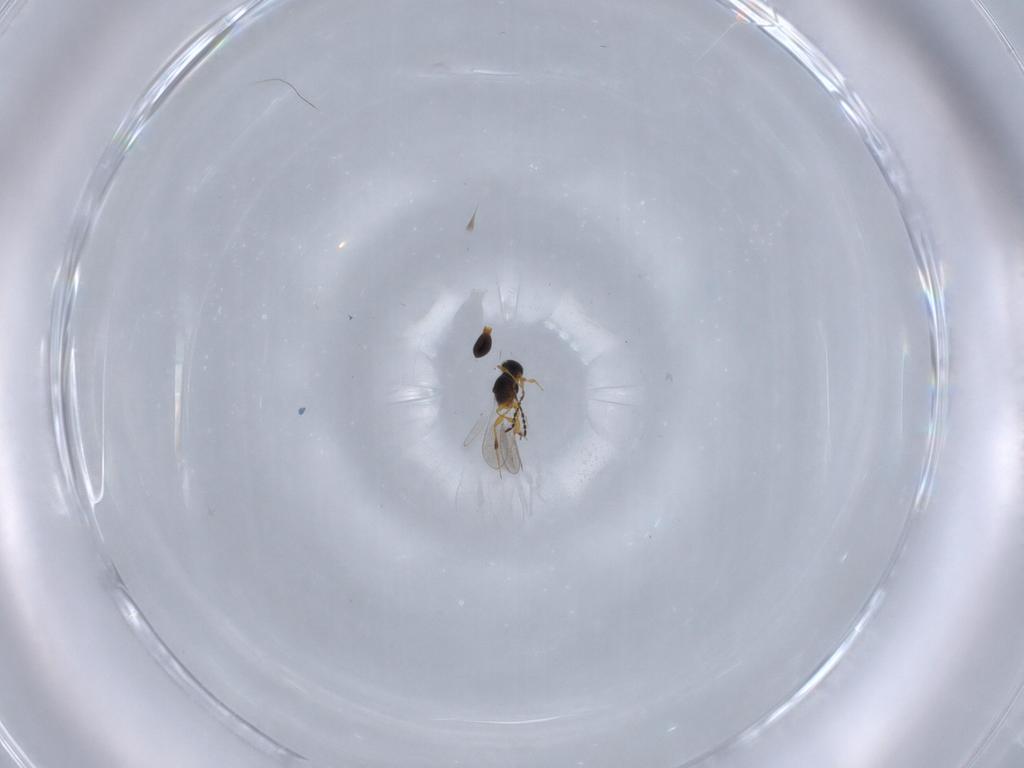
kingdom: Animalia
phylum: Arthropoda
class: Insecta
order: Hymenoptera
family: Platygastridae
